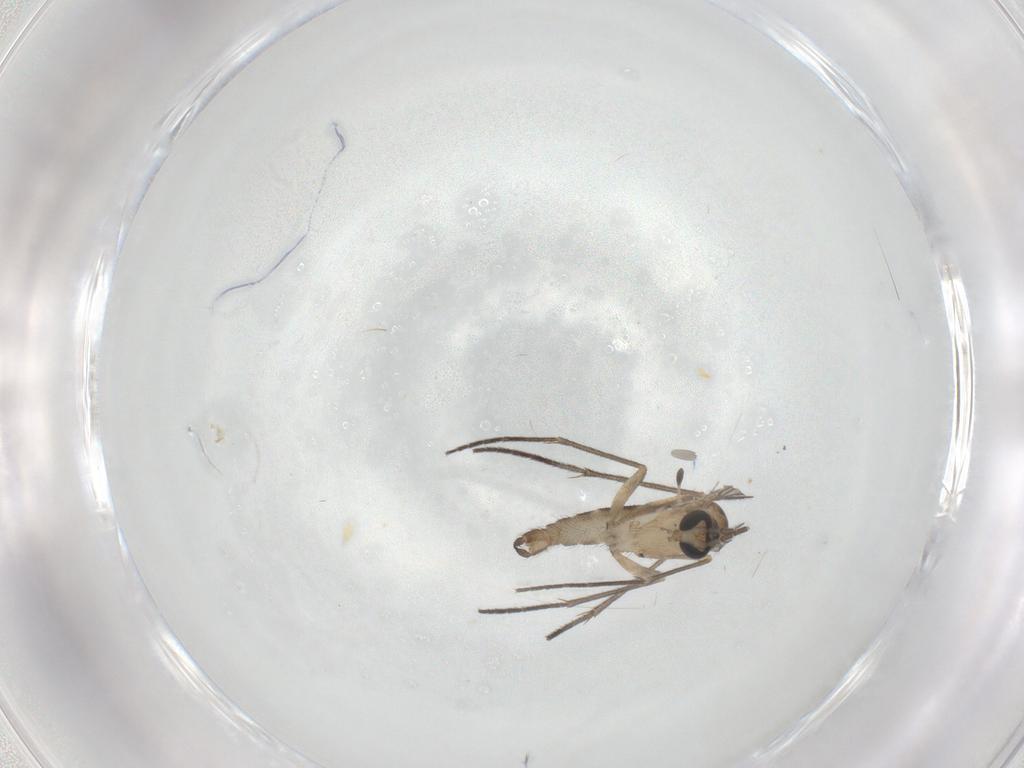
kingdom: Animalia
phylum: Arthropoda
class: Insecta
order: Diptera
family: Sciaridae
